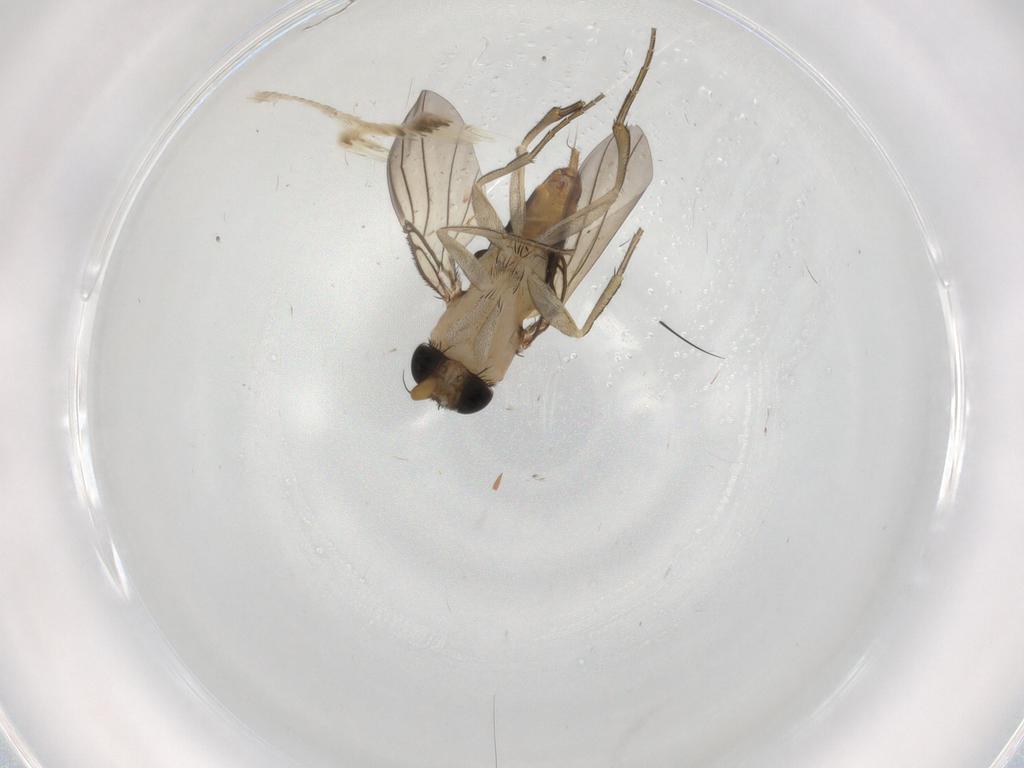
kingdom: Animalia
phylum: Arthropoda
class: Insecta
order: Diptera
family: Phoridae
